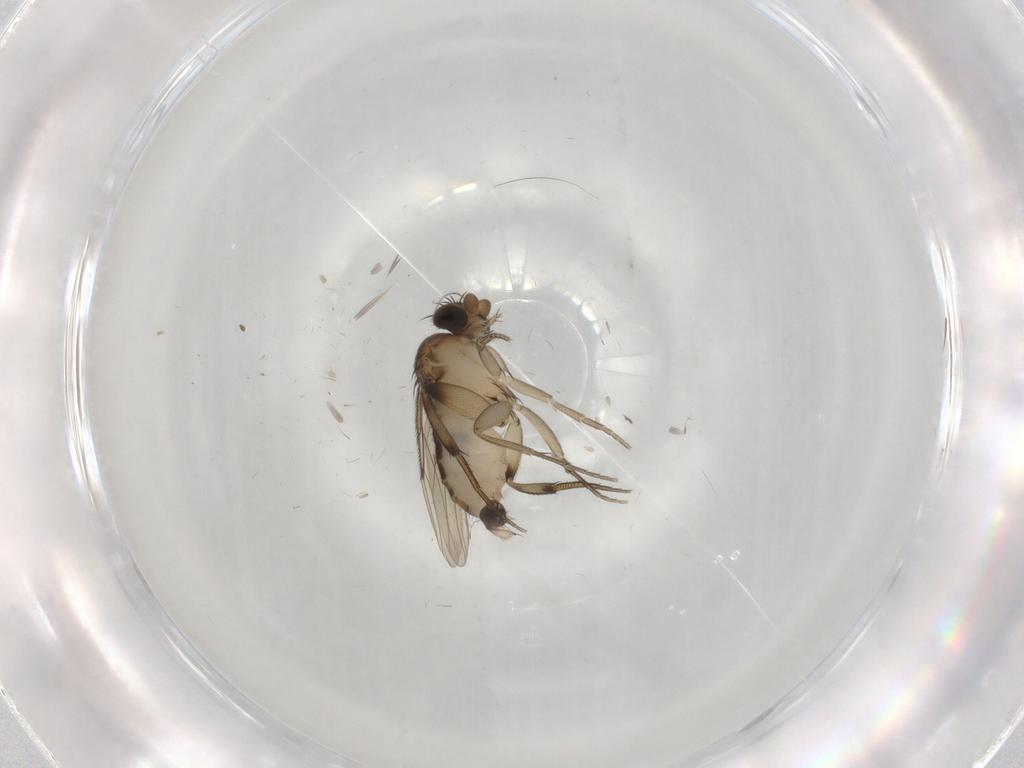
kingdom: Animalia
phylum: Arthropoda
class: Insecta
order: Diptera
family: Phoridae
